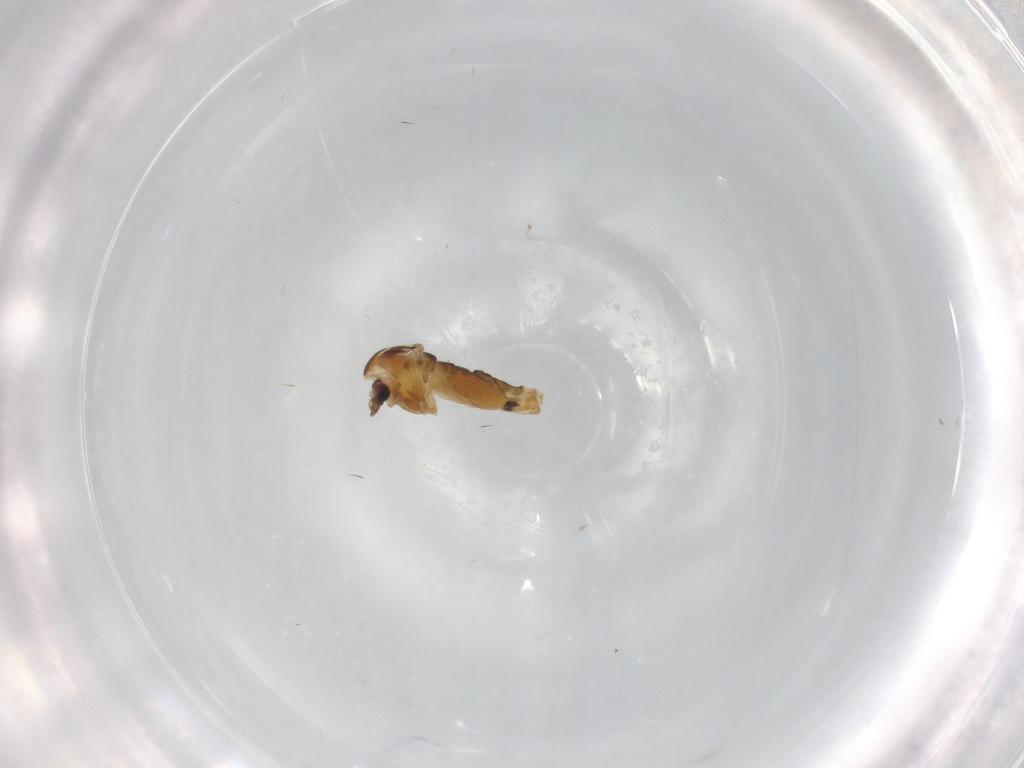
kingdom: Animalia
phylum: Arthropoda
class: Insecta
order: Diptera
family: Chironomidae
